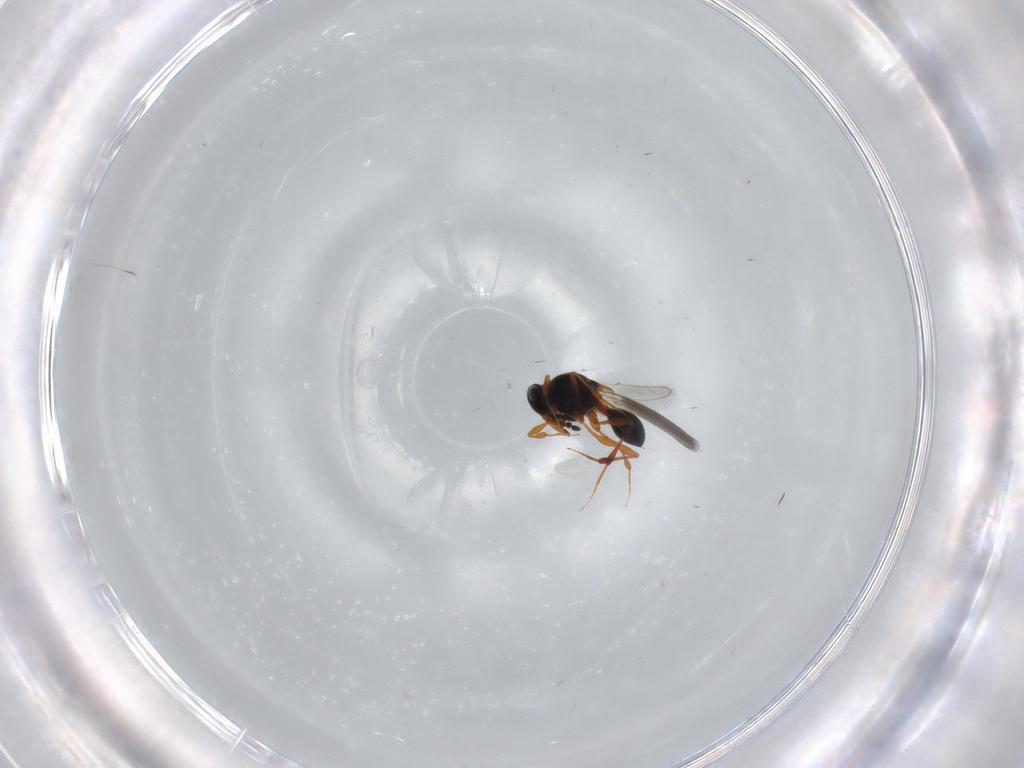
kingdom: Animalia
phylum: Arthropoda
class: Insecta
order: Hymenoptera
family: Platygastridae
